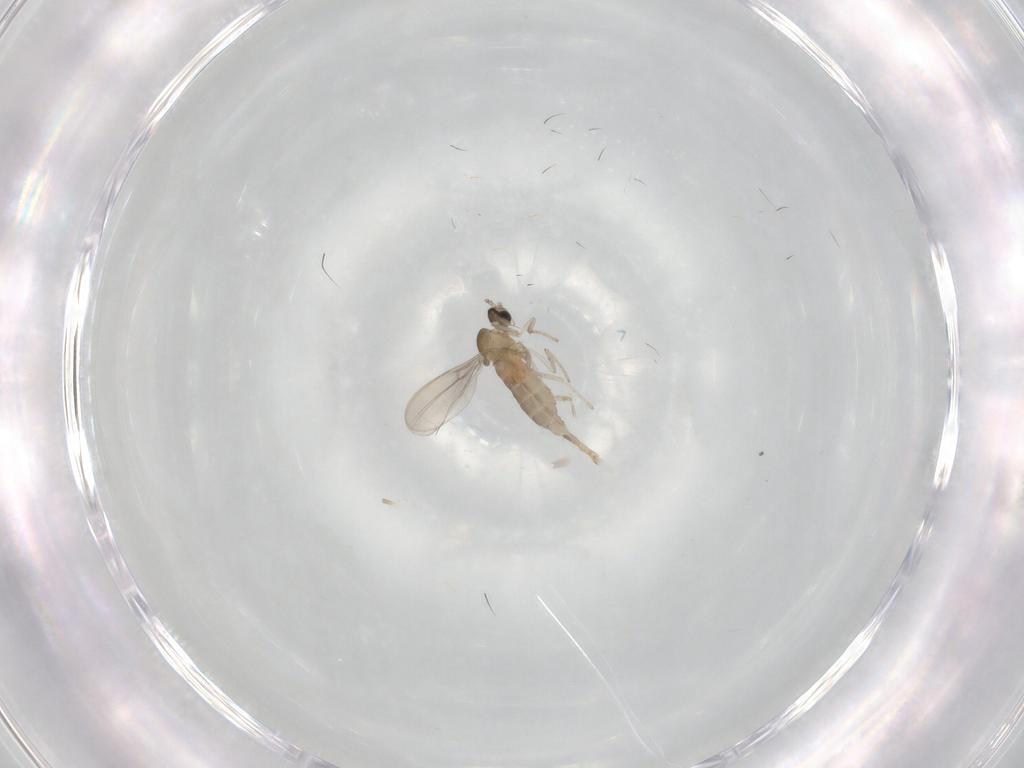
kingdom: Animalia
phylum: Arthropoda
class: Insecta
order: Diptera
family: Cecidomyiidae
